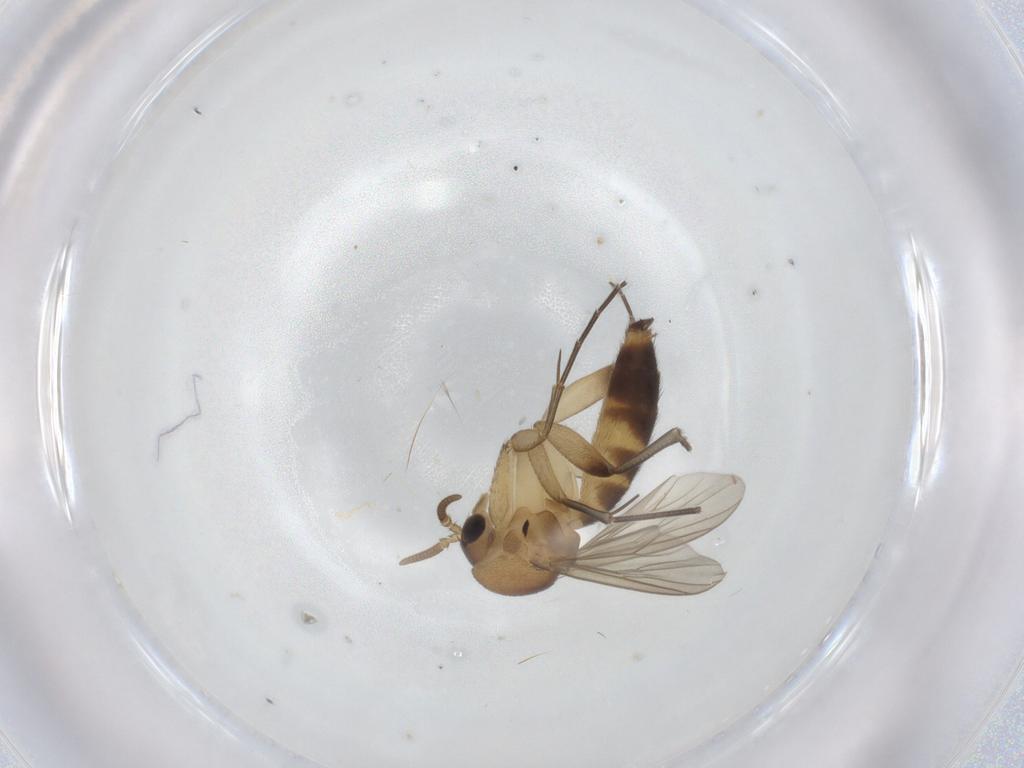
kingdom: Animalia
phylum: Arthropoda
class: Insecta
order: Diptera
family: Mycetophilidae
